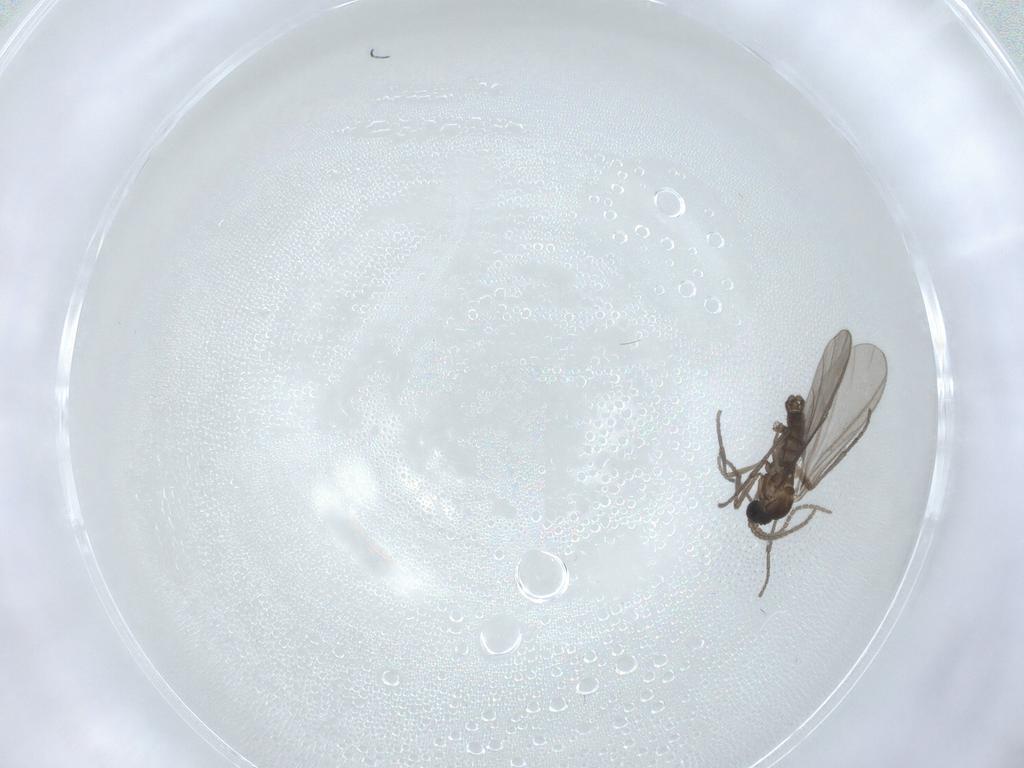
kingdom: Animalia
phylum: Arthropoda
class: Insecta
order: Diptera
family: Sciaridae
